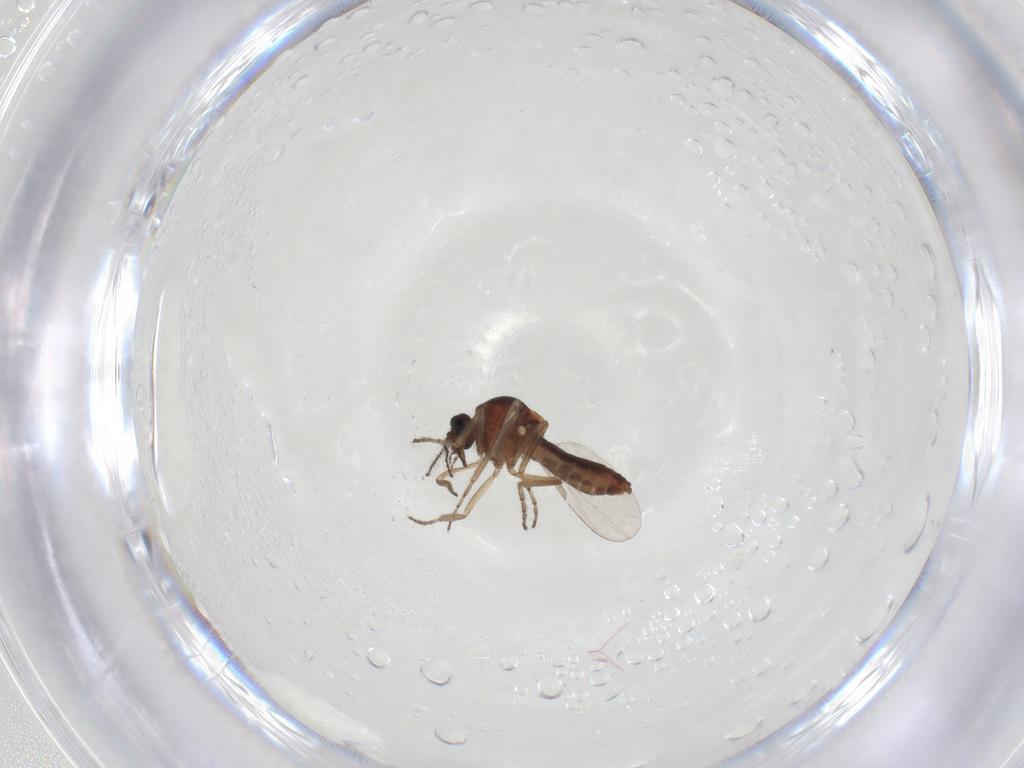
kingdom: Animalia
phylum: Arthropoda
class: Insecta
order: Diptera
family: Ceratopogonidae
